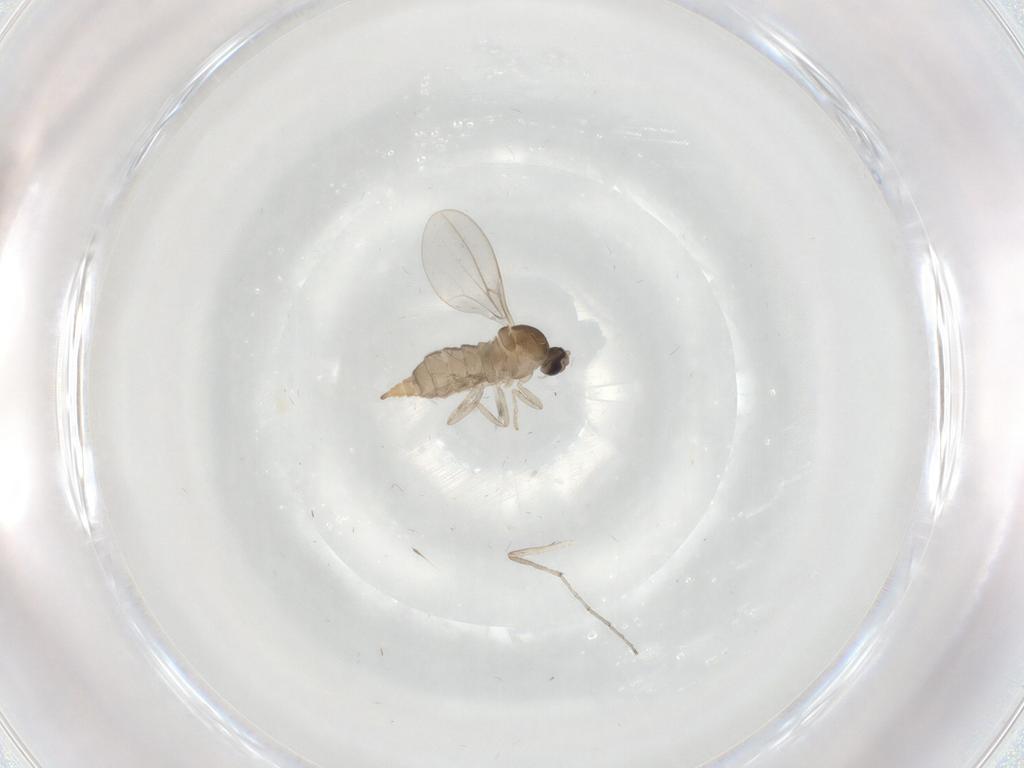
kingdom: Animalia
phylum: Arthropoda
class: Insecta
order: Diptera
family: Cecidomyiidae
